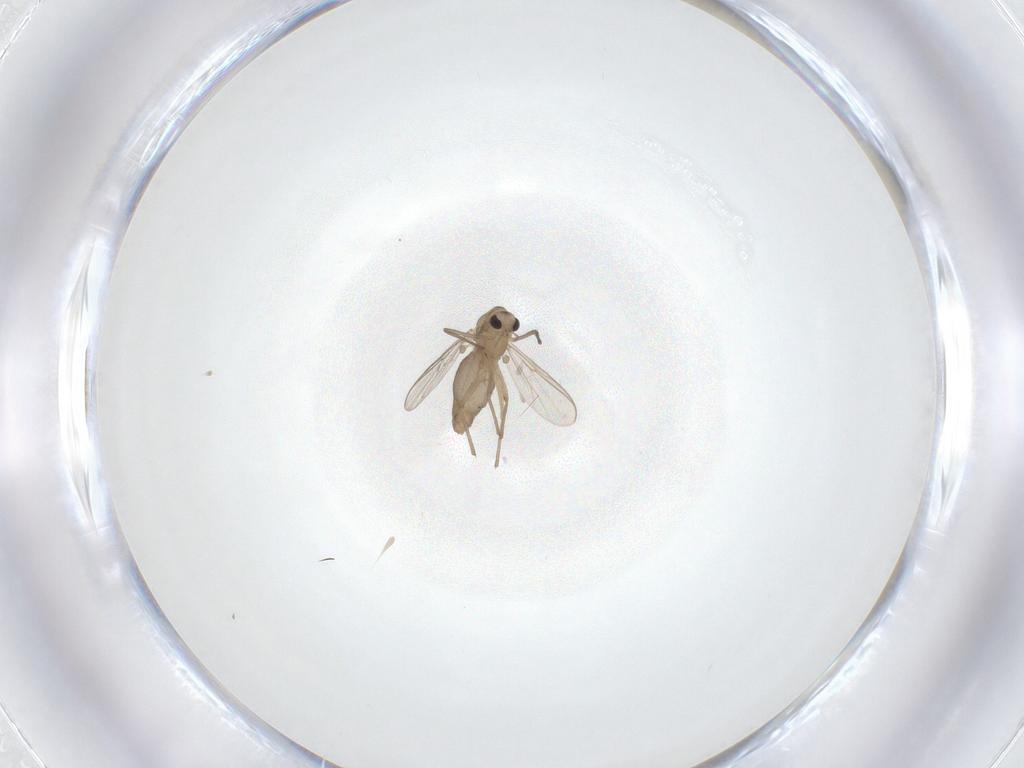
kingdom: Animalia
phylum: Arthropoda
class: Insecta
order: Diptera
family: Chironomidae
